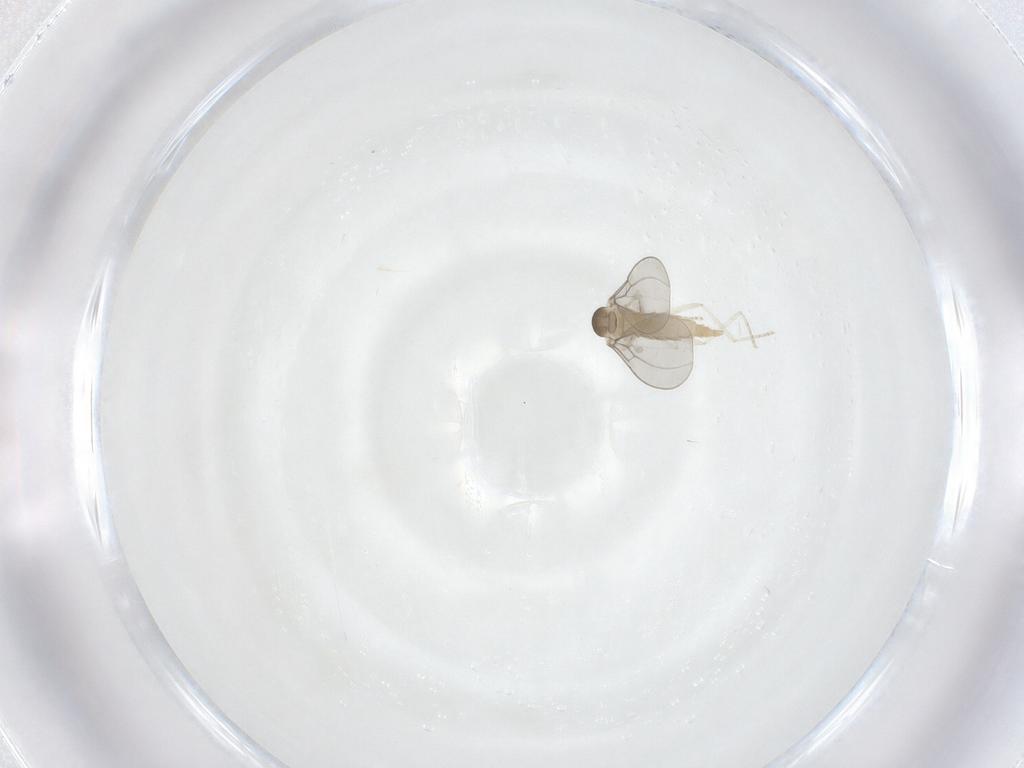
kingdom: Animalia
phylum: Arthropoda
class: Insecta
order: Diptera
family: Cecidomyiidae
